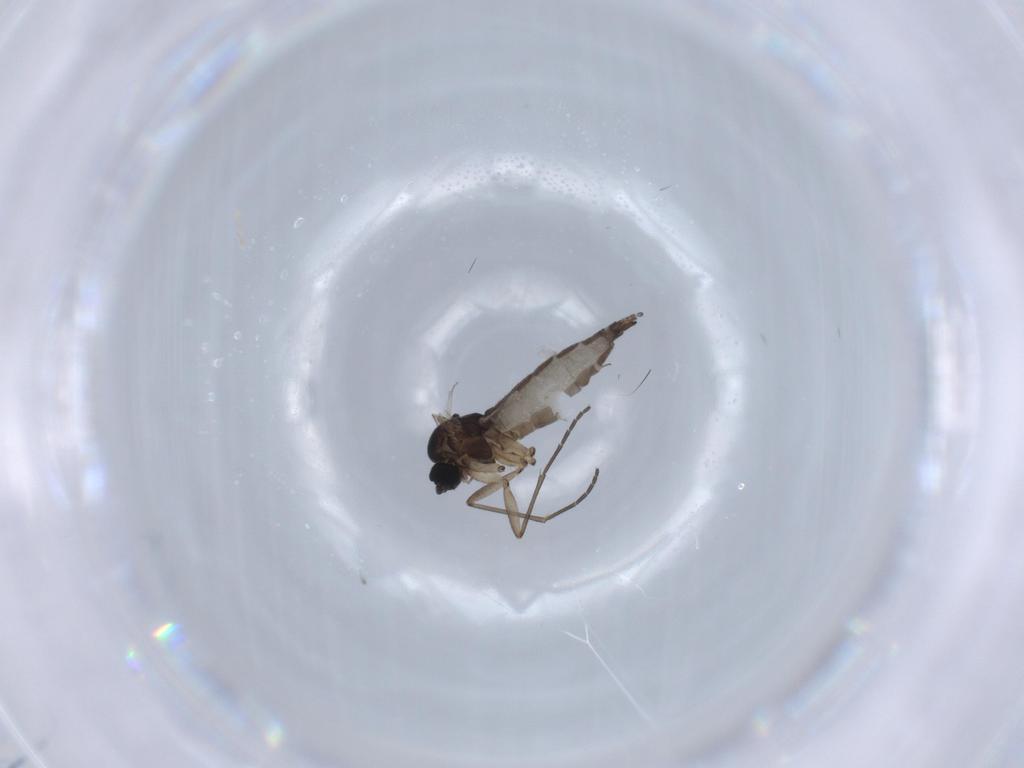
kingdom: Animalia
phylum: Arthropoda
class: Insecta
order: Diptera
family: Sciaridae
